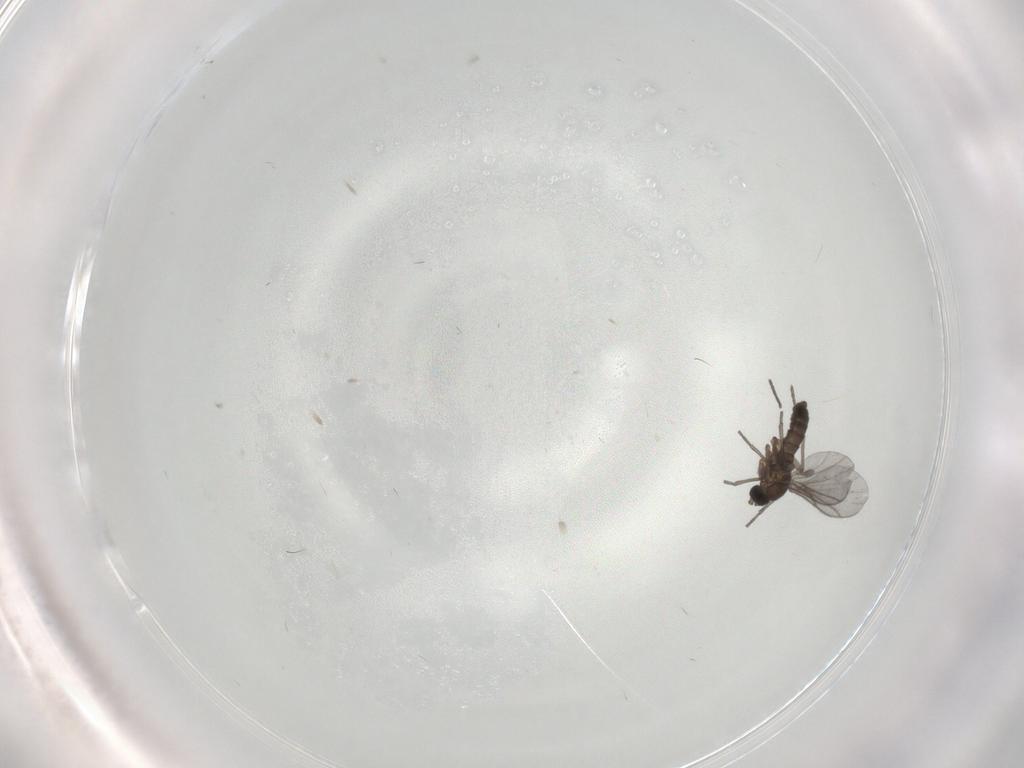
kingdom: Animalia
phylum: Arthropoda
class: Insecta
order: Diptera
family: Sciaridae
